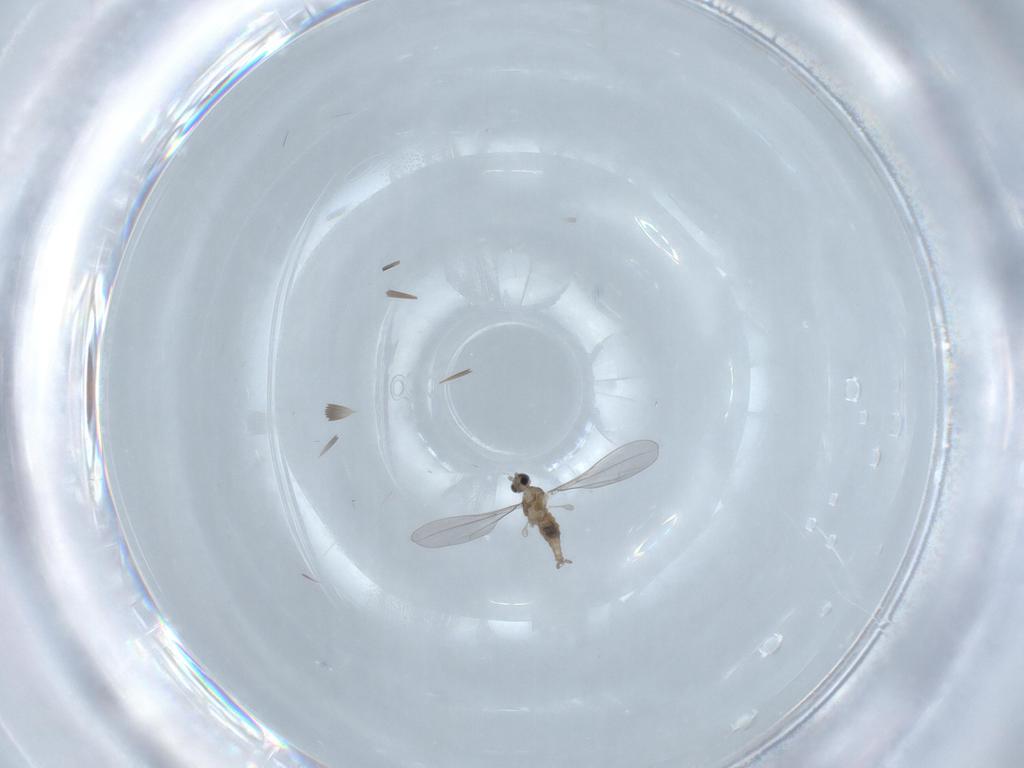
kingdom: Animalia
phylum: Arthropoda
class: Insecta
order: Diptera
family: Cecidomyiidae
